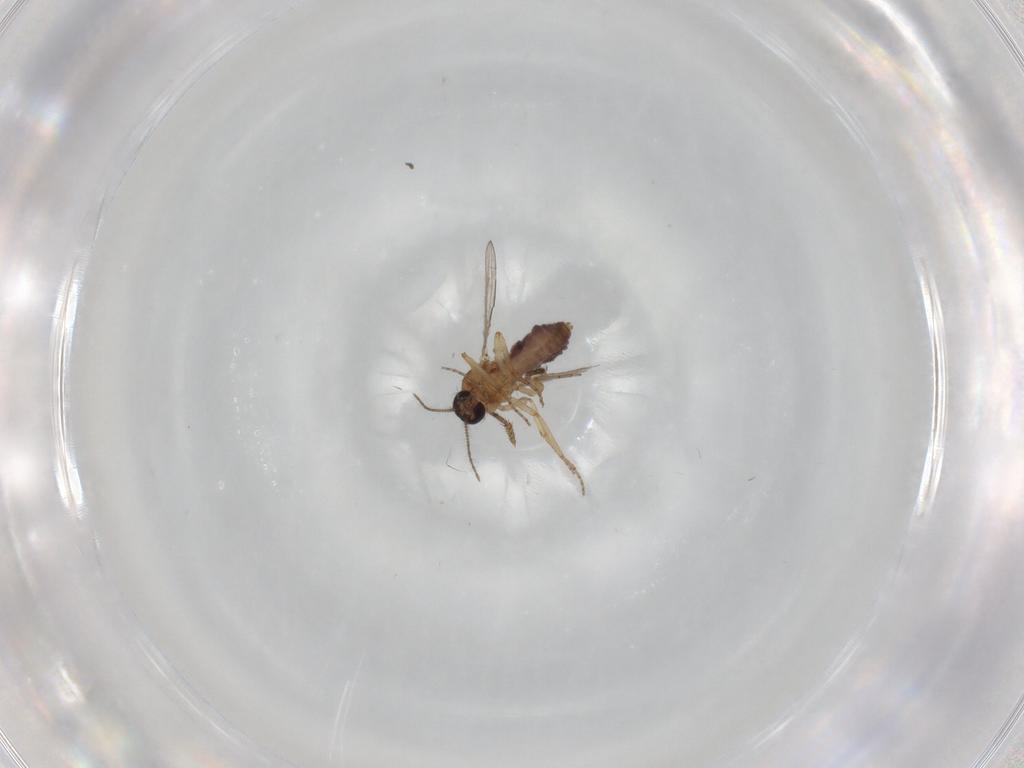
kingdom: Animalia
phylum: Arthropoda
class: Insecta
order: Diptera
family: Dolichopodidae
